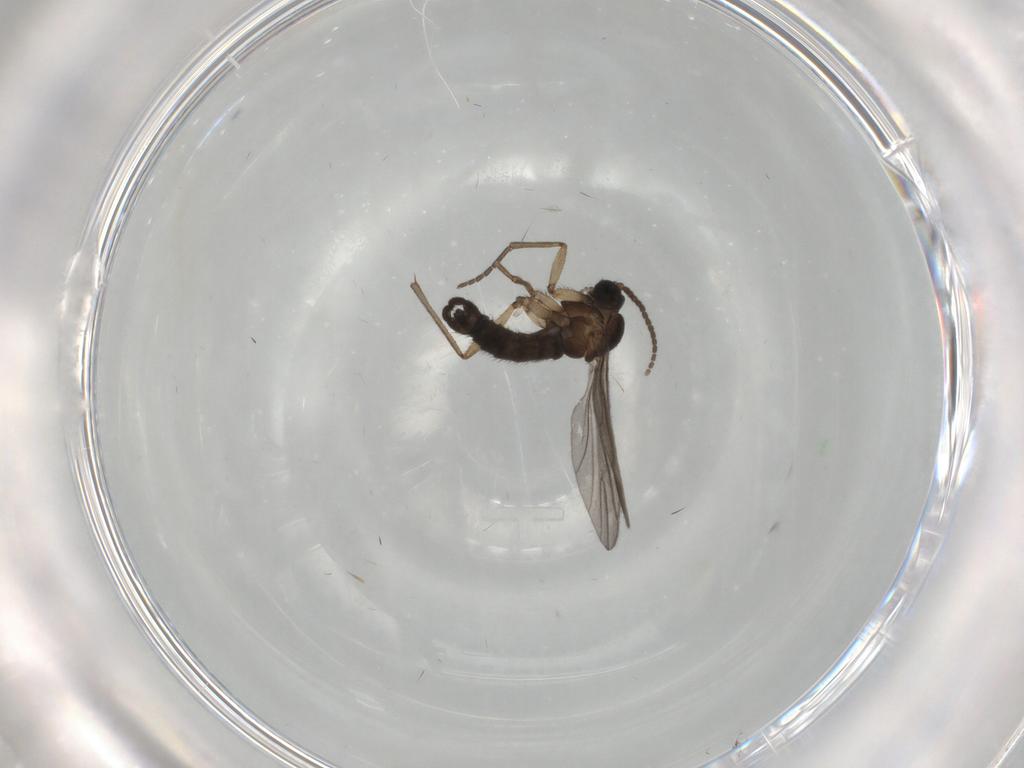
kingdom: Animalia
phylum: Arthropoda
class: Insecta
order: Diptera
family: Sciaridae
